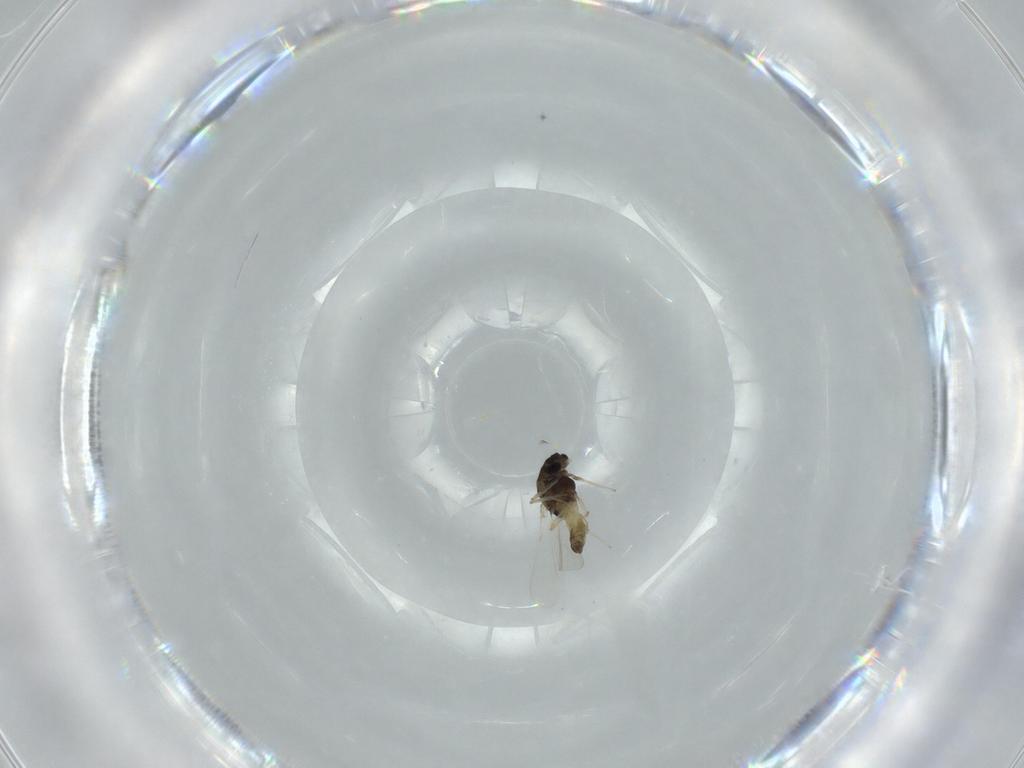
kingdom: Animalia
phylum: Arthropoda
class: Insecta
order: Diptera
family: Chironomidae
